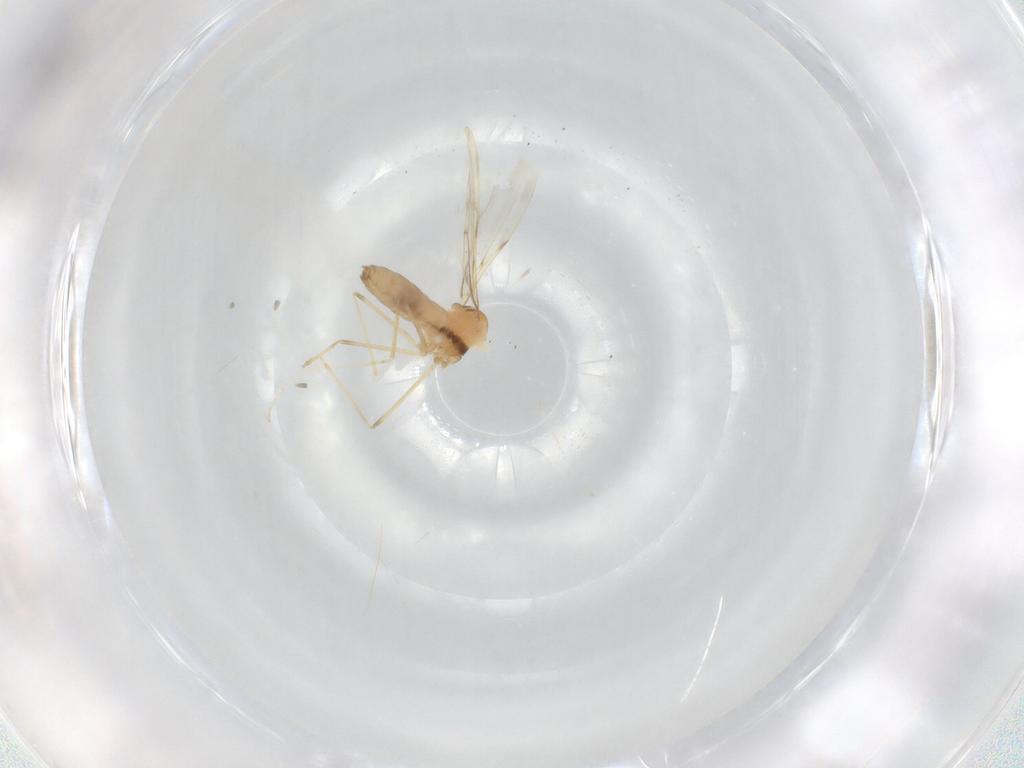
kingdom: Animalia
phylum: Arthropoda
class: Insecta
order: Diptera
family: Cecidomyiidae
